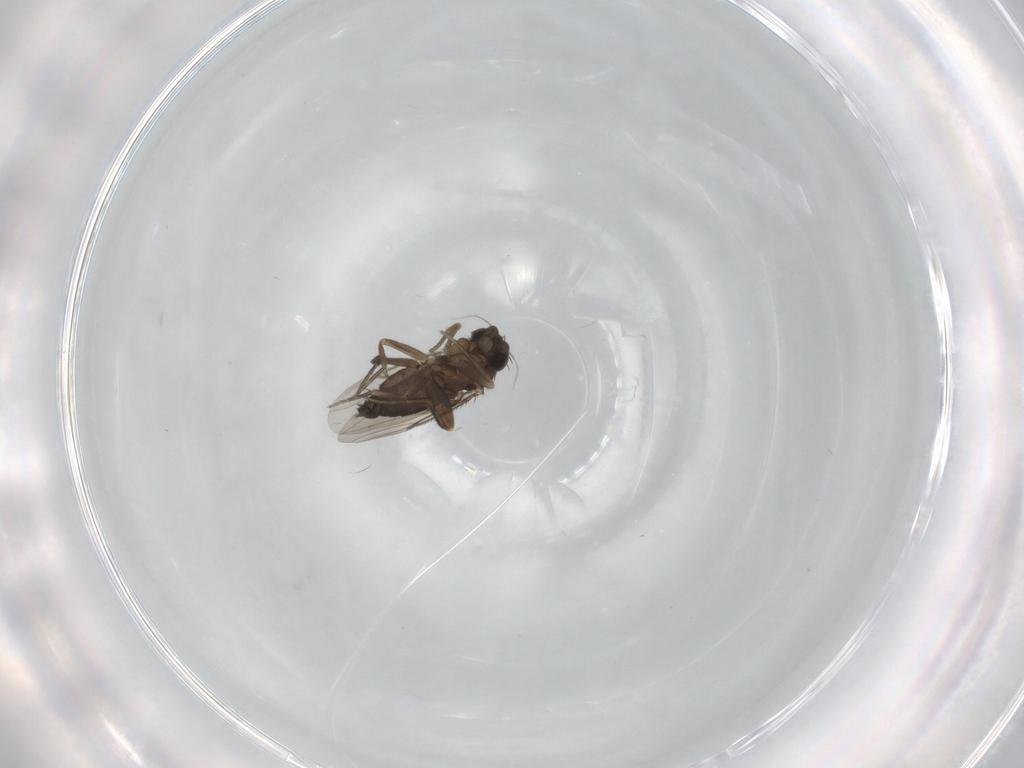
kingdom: Animalia
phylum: Arthropoda
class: Insecta
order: Diptera
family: Phoridae
